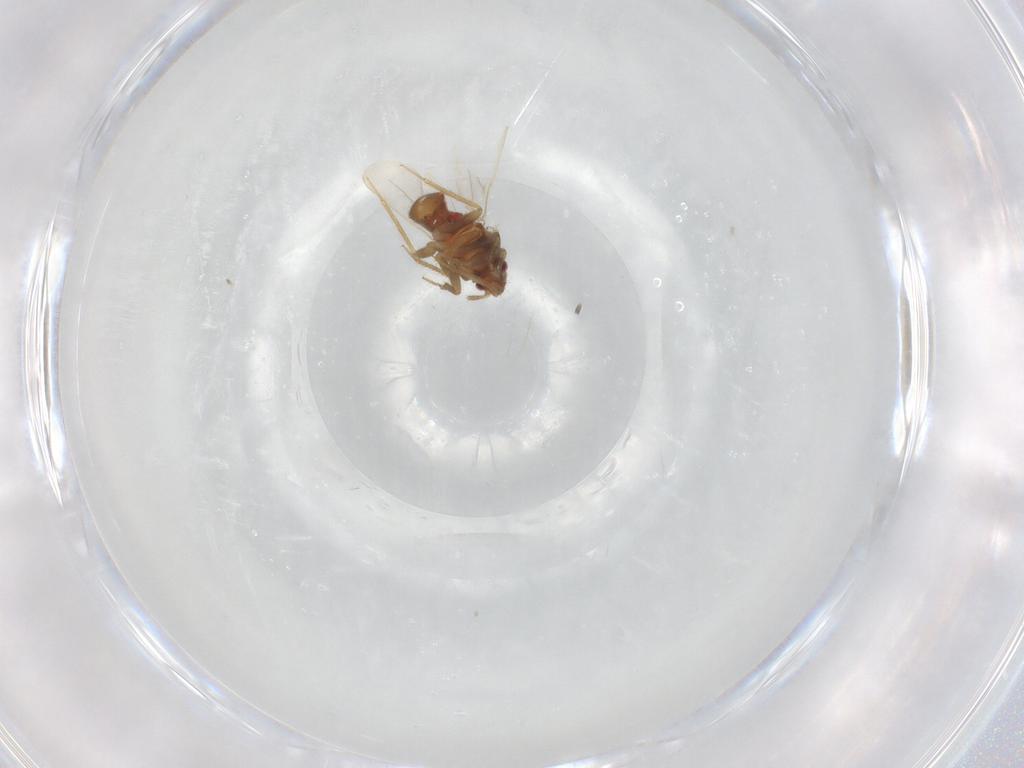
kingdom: Animalia
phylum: Arthropoda
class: Insecta
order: Hemiptera
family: Ceratocombidae
